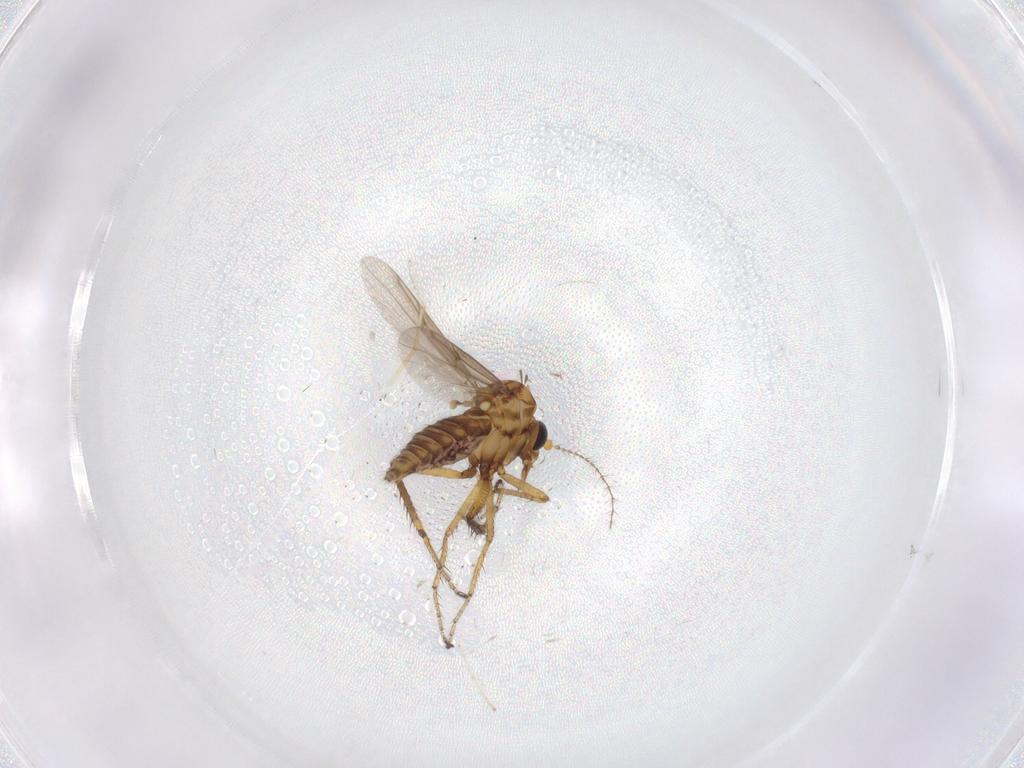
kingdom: Animalia
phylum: Arthropoda
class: Insecta
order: Diptera
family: Ceratopogonidae
